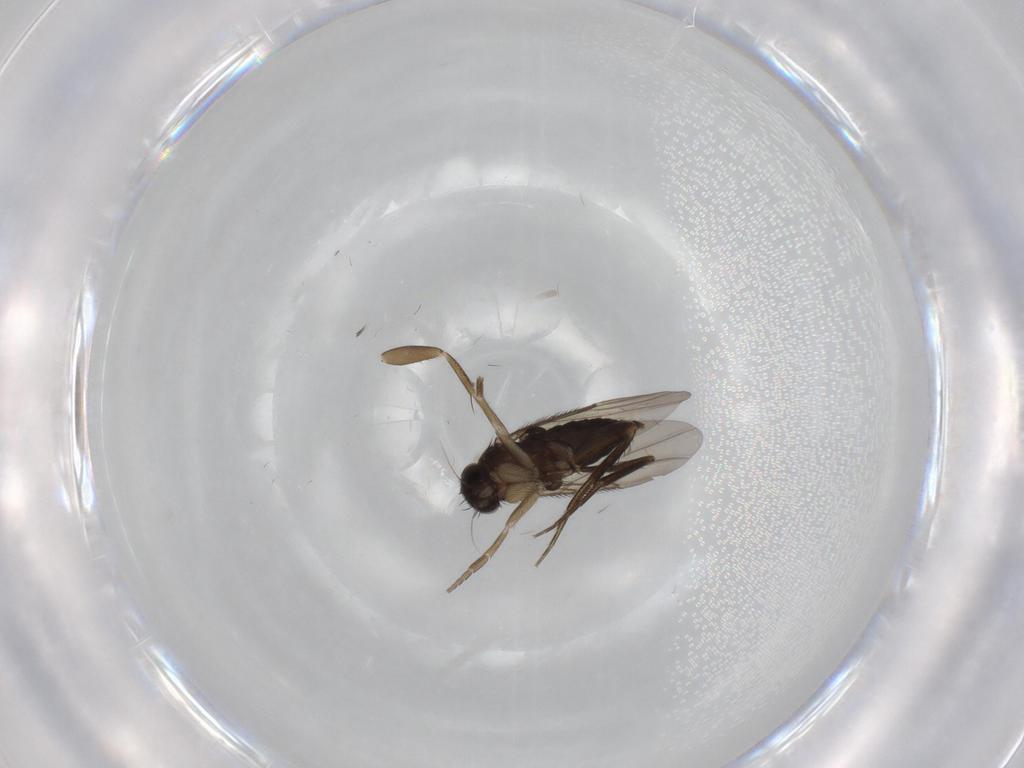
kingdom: Animalia
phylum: Arthropoda
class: Insecta
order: Diptera
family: Phoridae
